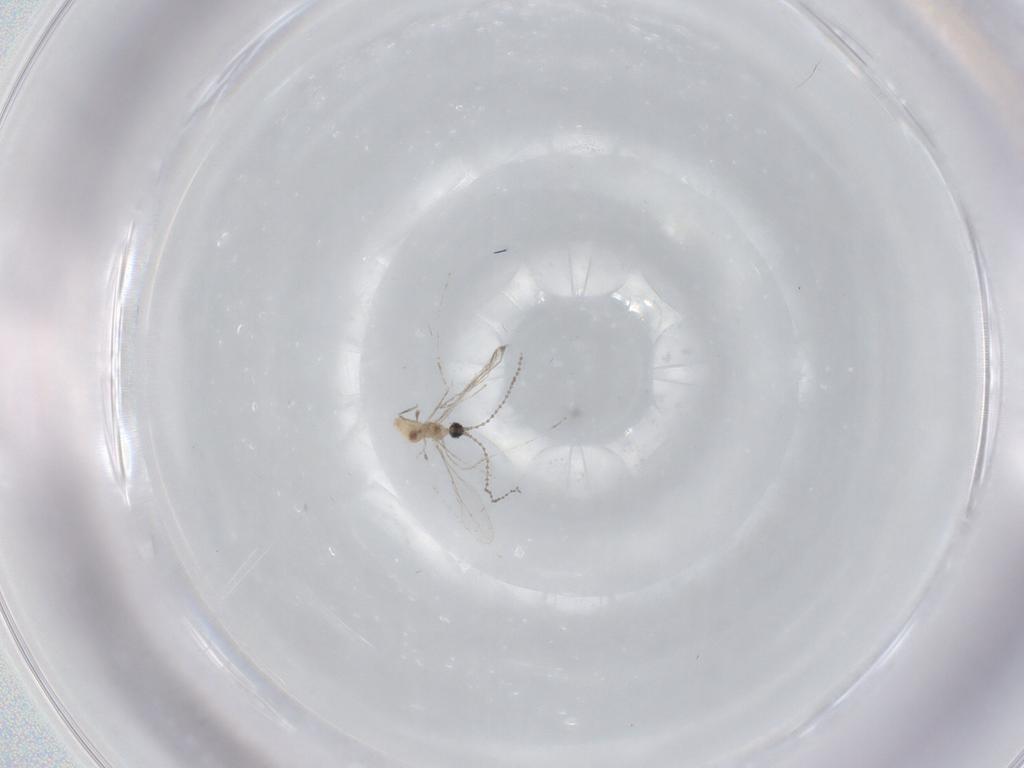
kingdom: Animalia
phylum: Arthropoda
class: Insecta
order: Diptera
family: Cecidomyiidae
